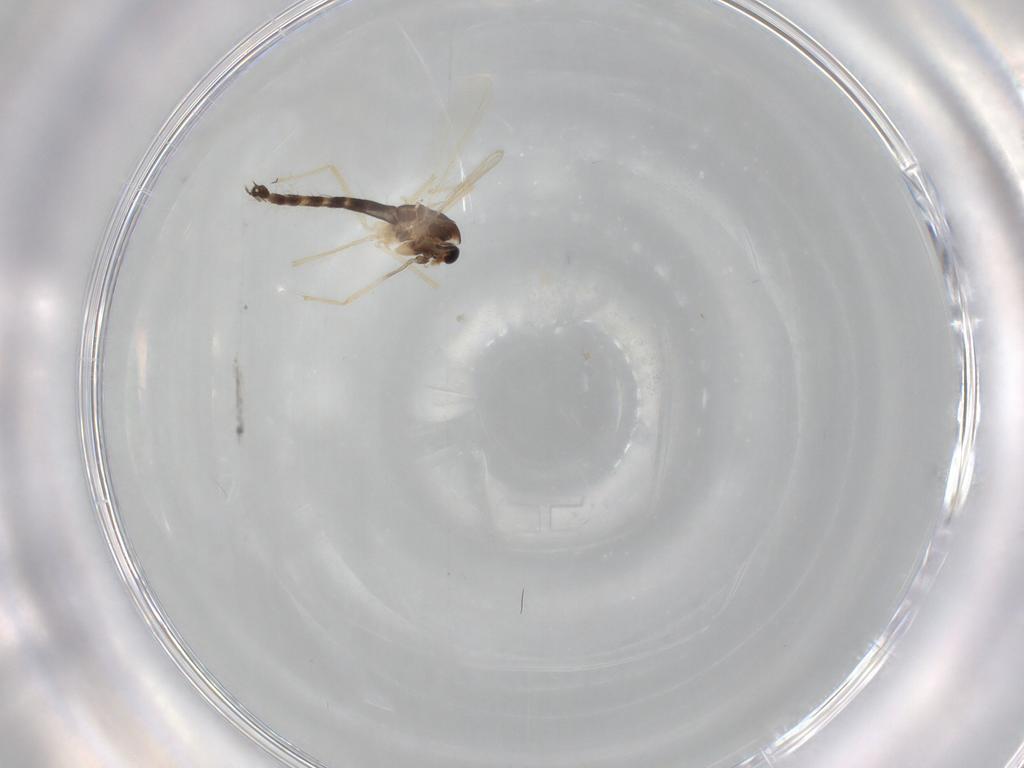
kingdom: Animalia
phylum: Arthropoda
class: Insecta
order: Diptera
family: Chironomidae
